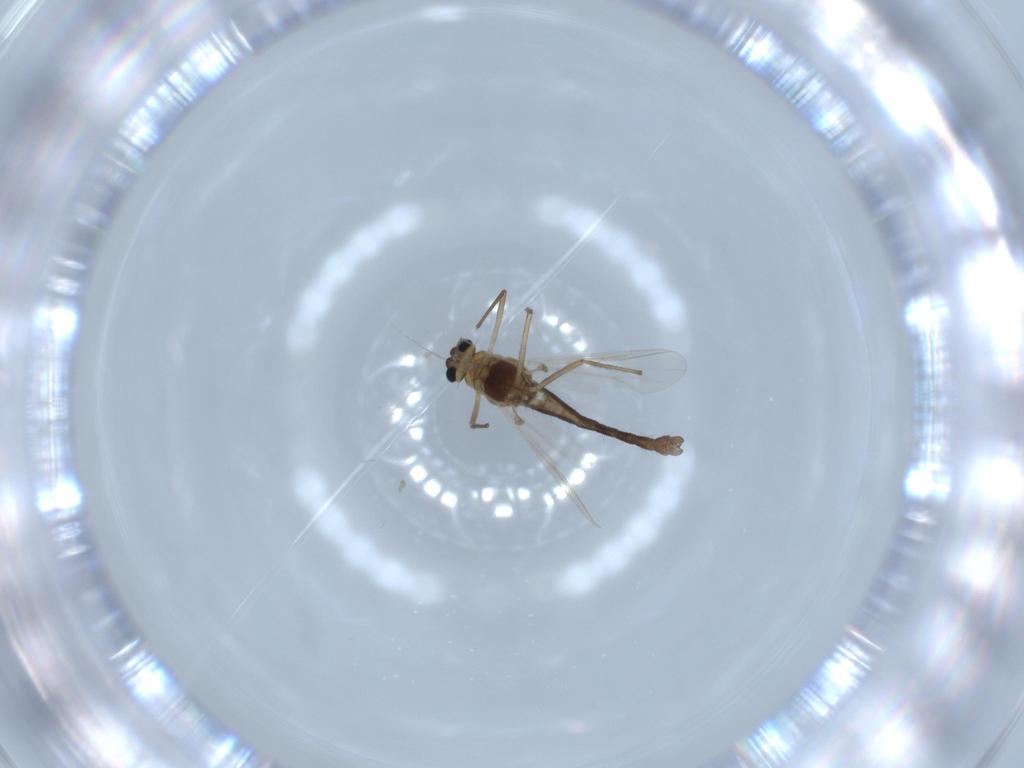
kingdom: Animalia
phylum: Arthropoda
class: Insecta
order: Diptera
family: Chironomidae
